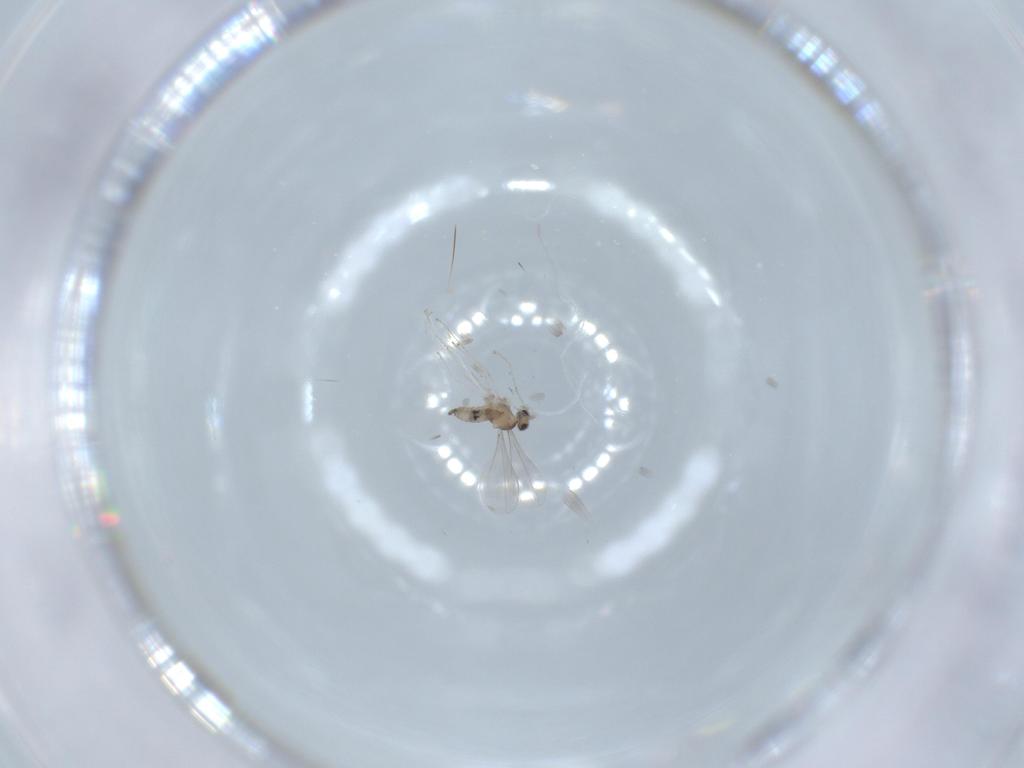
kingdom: Animalia
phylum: Arthropoda
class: Insecta
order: Diptera
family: Cecidomyiidae
